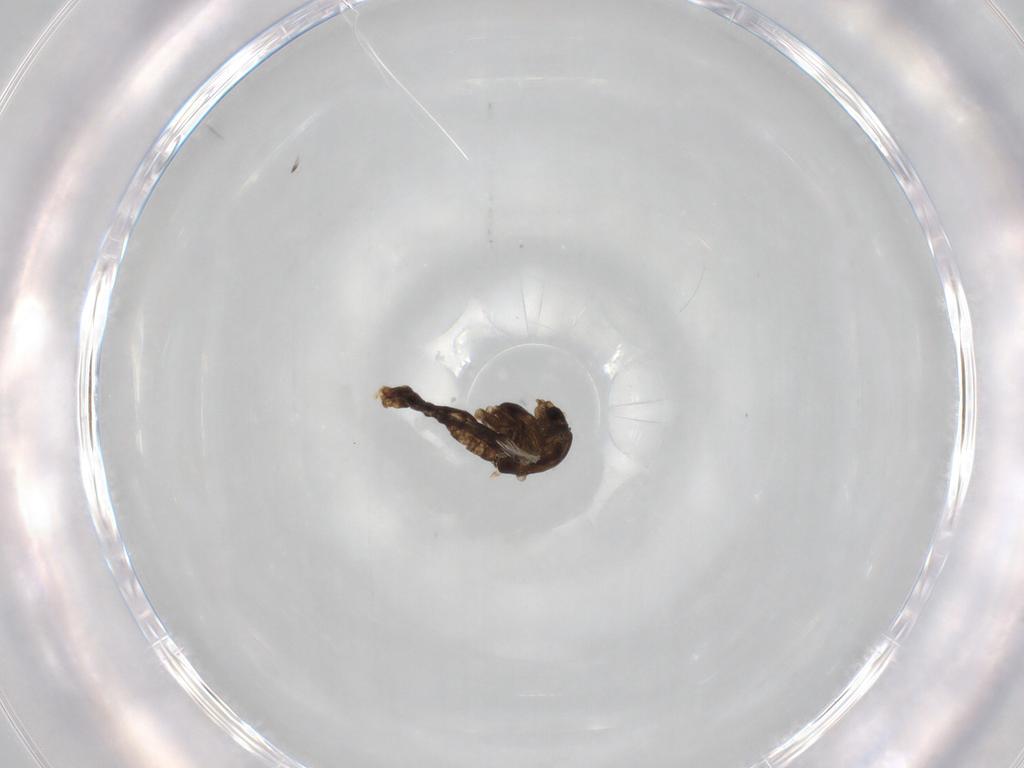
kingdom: Animalia
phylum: Arthropoda
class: Insecta
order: Diptera
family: Chironomidae
